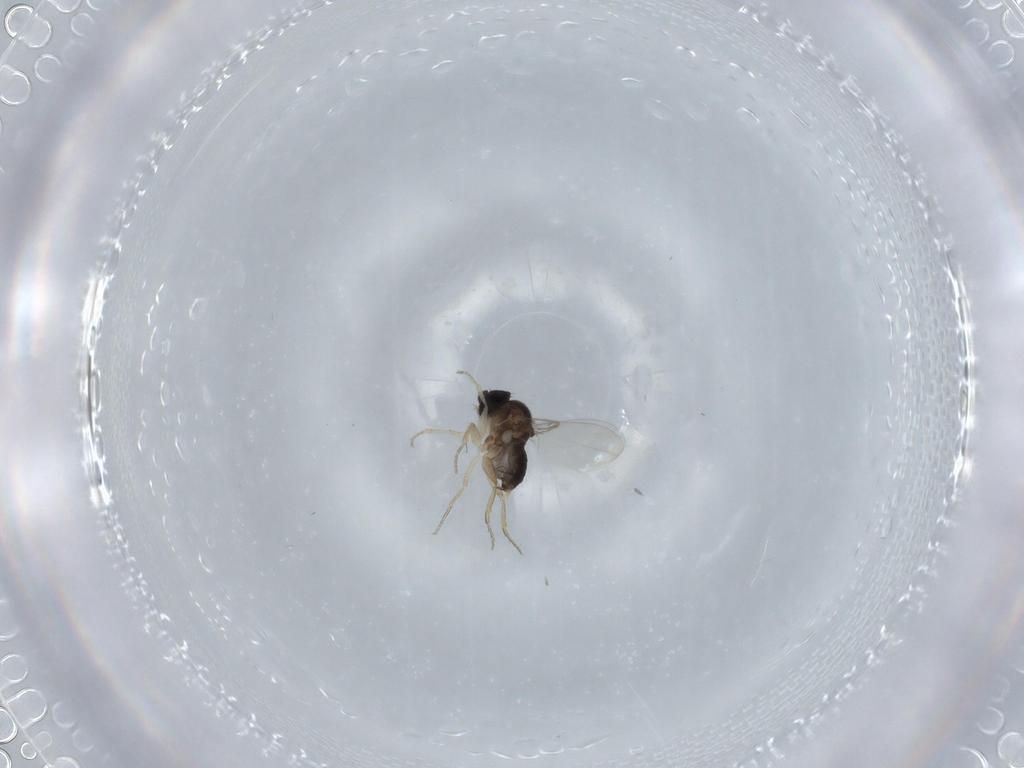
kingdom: Animalia
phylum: Arthropoda
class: Insecta
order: Diptera
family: Phoridae
